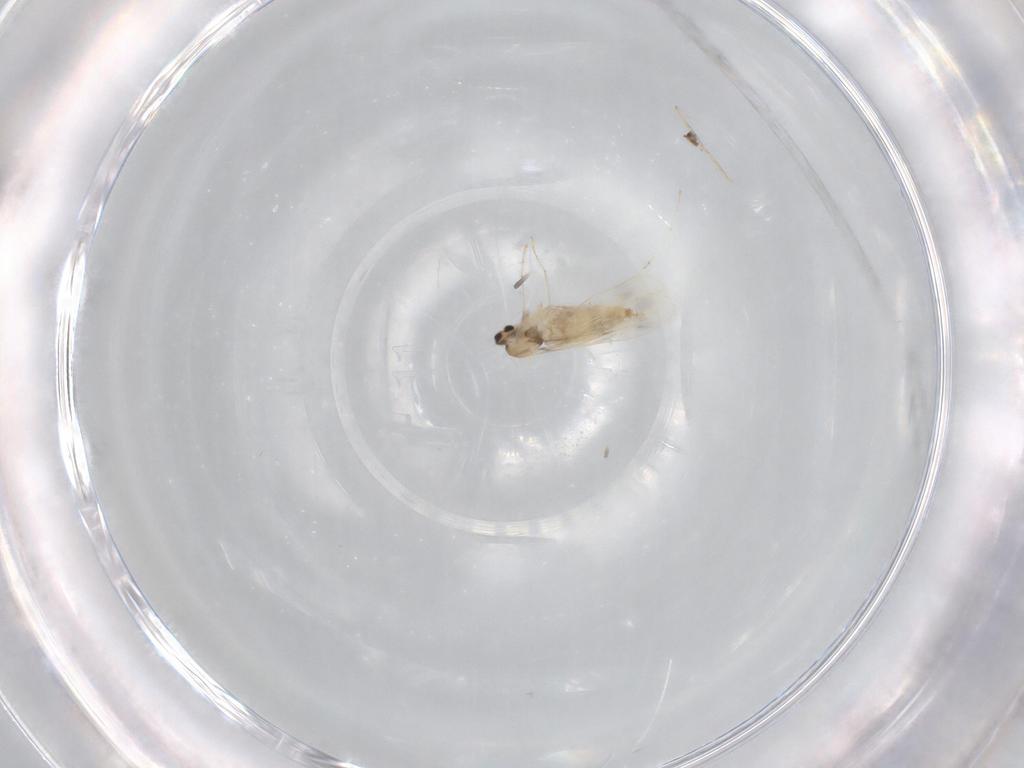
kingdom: Animalia
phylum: Arthropoda
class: Insecta
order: Diptera
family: Cecidomyiidae
